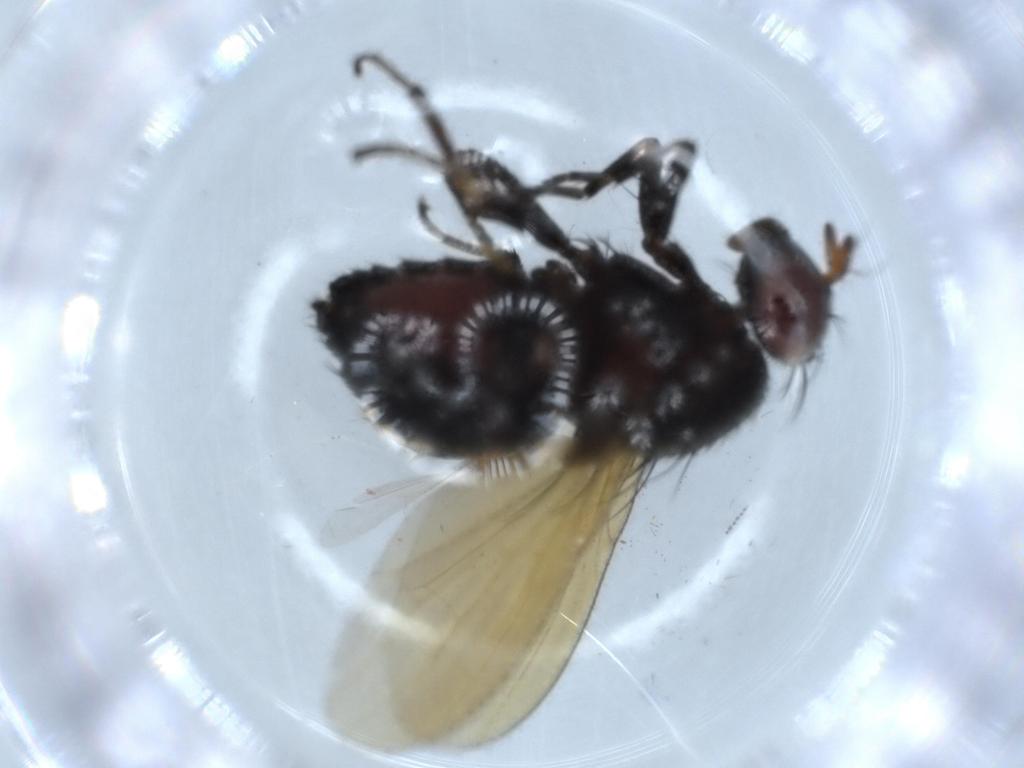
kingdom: Animalia
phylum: Arthropoda
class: Insecta
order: Diptera
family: Cecidomyiidae
